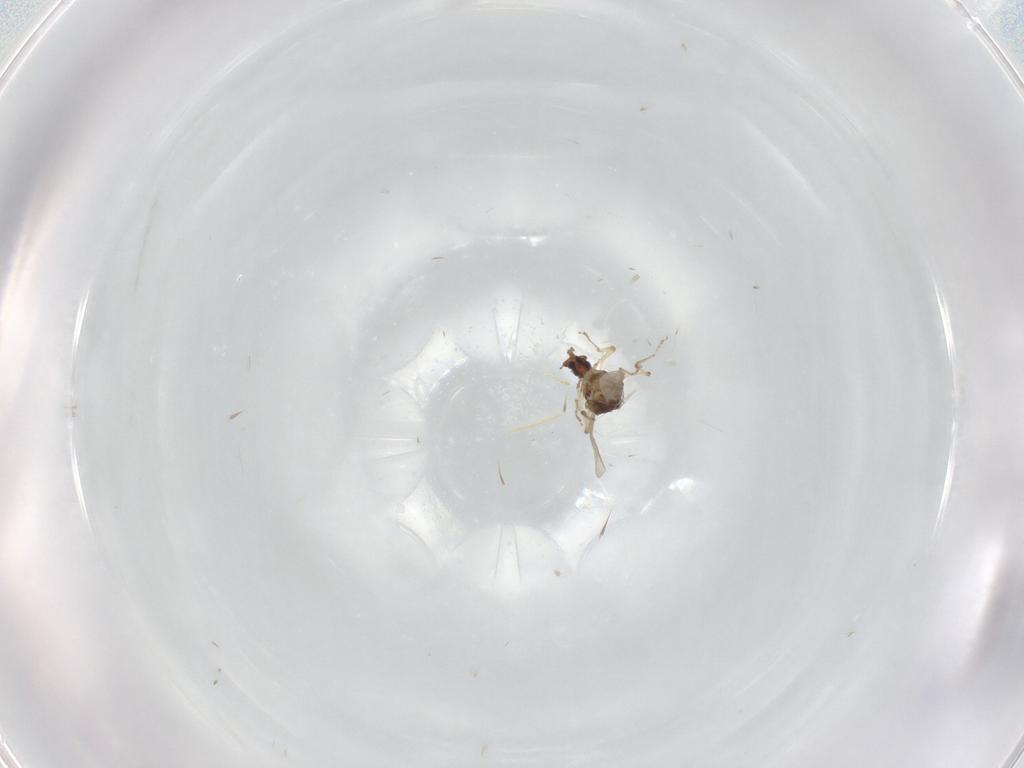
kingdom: Animalia
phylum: Arthropoda
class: Insecta
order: Diptera
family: Ceratopogonidae
